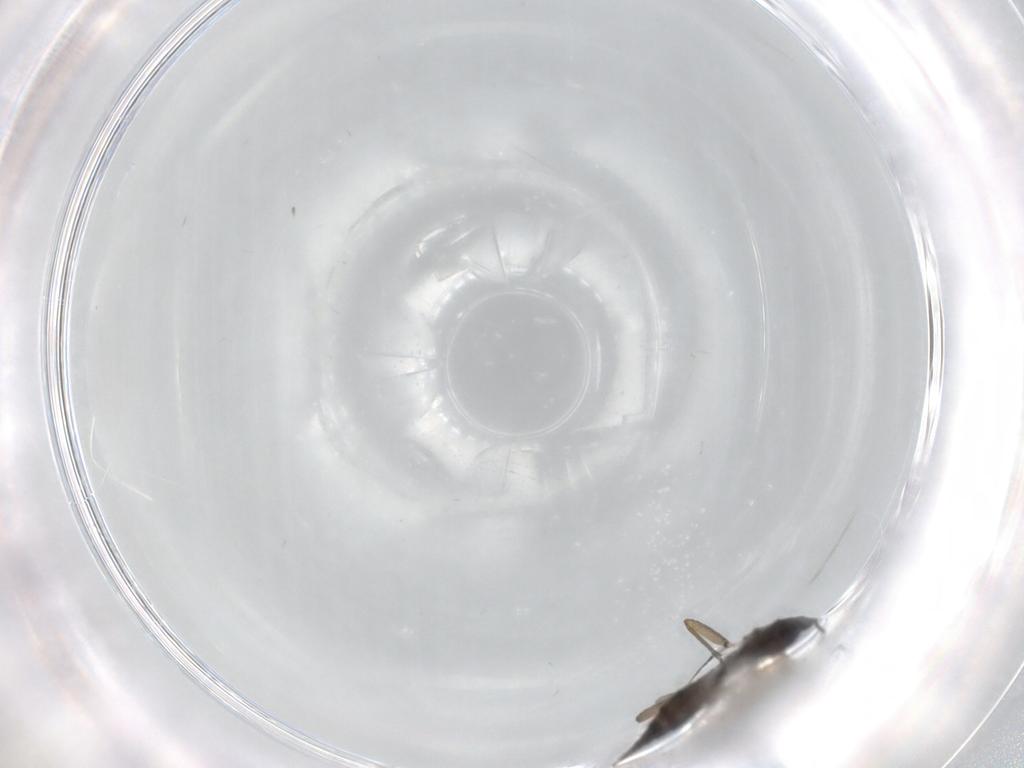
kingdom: Animalia
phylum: Arthropoda
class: Insecta
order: Diptera
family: Sciaridae
